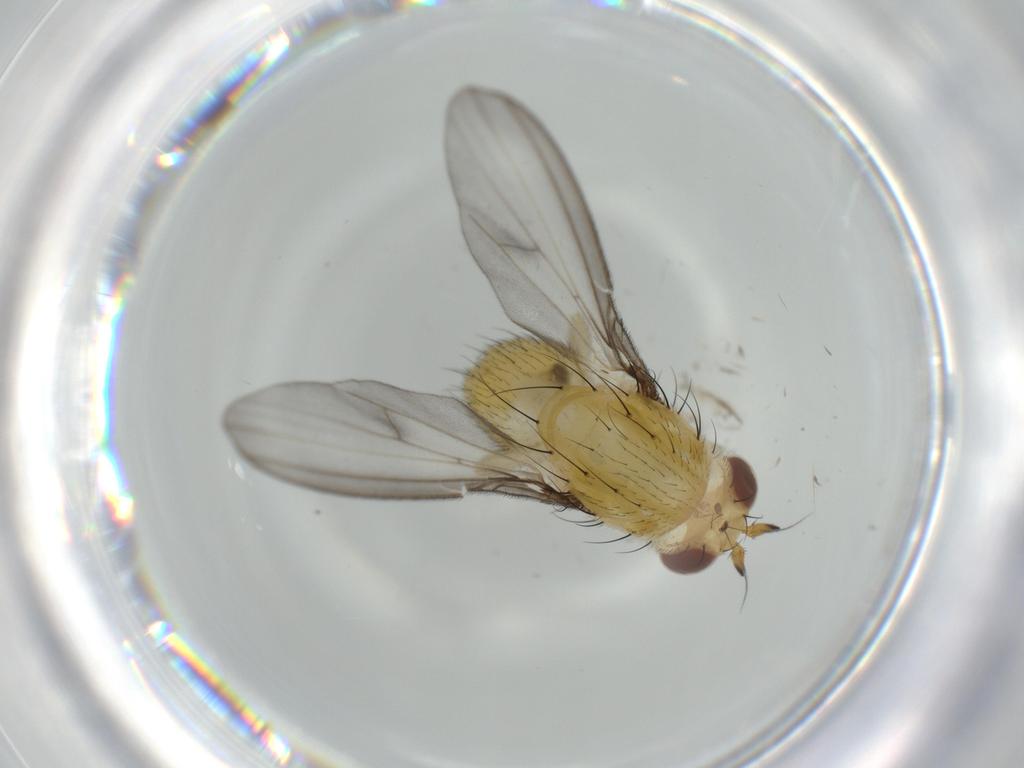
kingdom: Animalia
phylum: Arthropoda
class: Insecta
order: Diptera
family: Lauxaniidae
